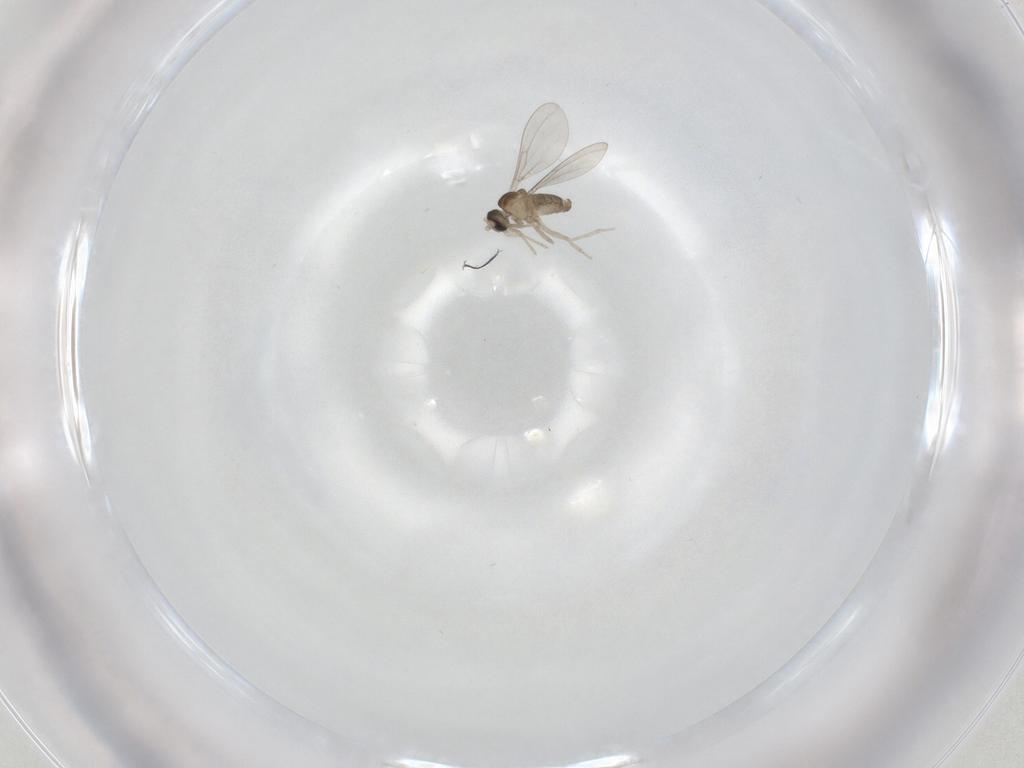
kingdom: Animalia
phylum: Arthropoda
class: Insecta
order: Diptera
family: Cecidomyiidae
